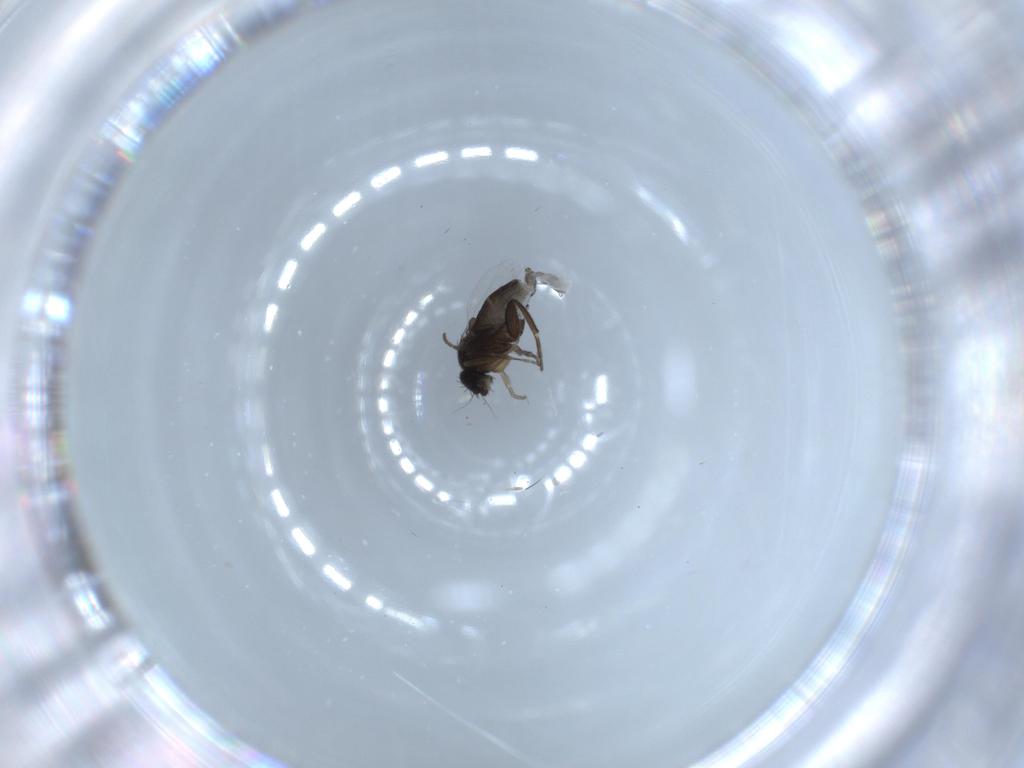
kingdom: Animalia
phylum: Arthropoda
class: Insecta
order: Diptera
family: Sciaridae
